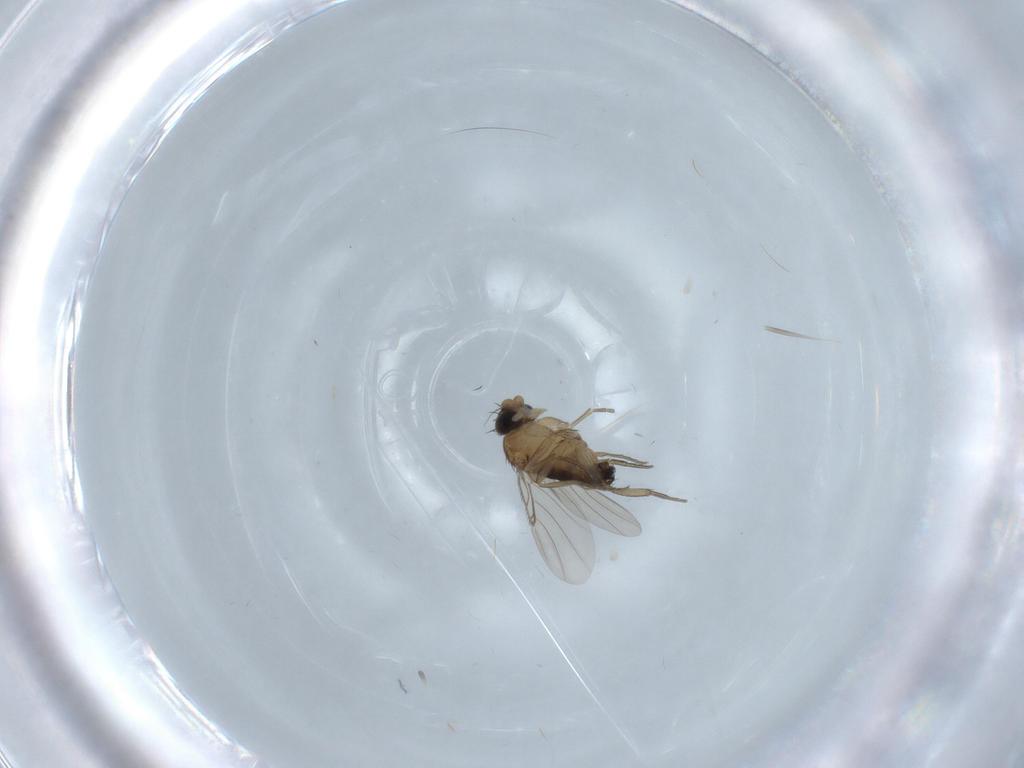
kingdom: Animalia
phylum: Arthropoda
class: Insecta
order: Diptera
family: Phoridae
